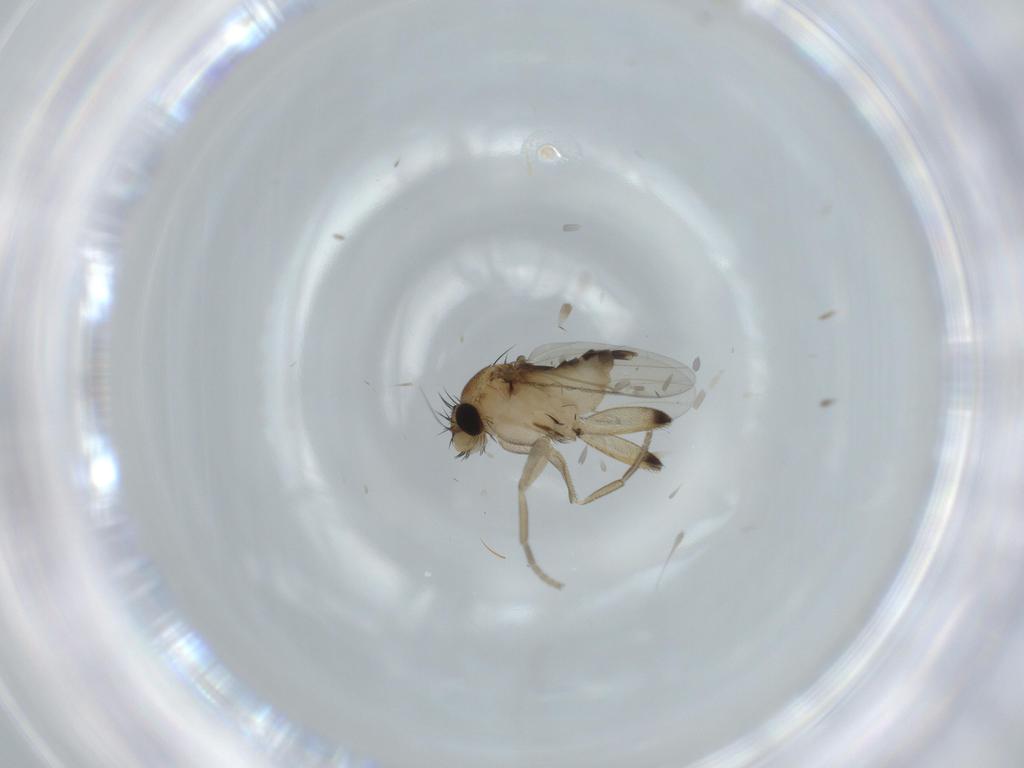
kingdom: Animalia
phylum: Arthropoda
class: Insecta
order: Diptera
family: Phoridae
